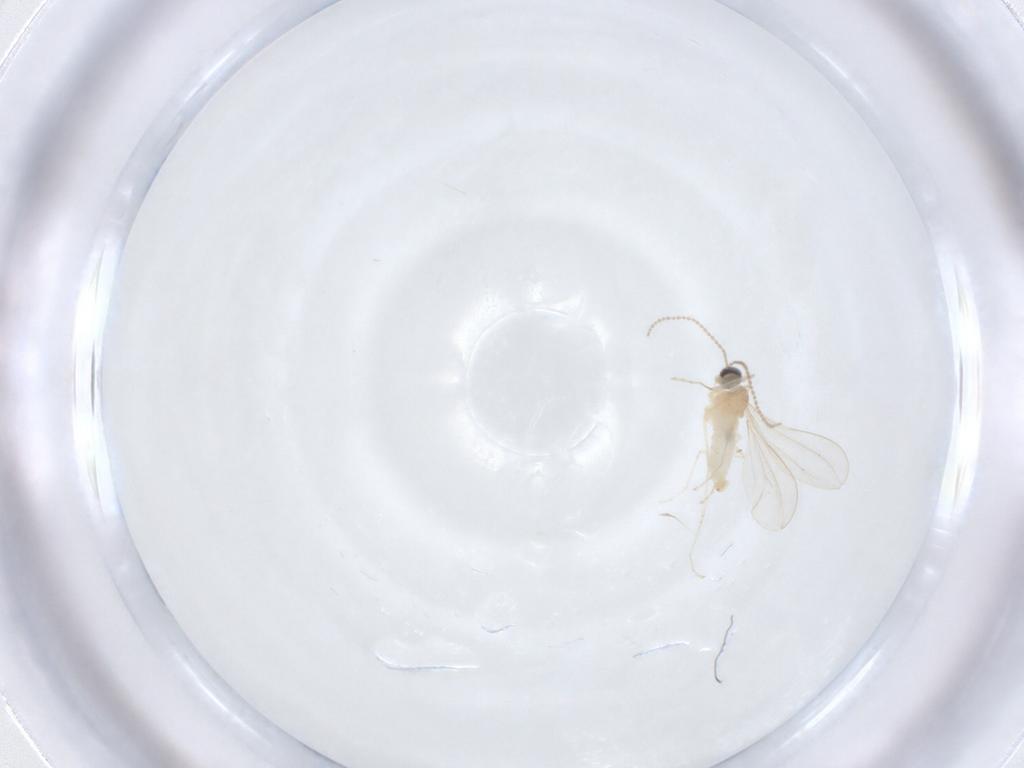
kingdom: Animalia
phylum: Arthropoda
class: Insecta
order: Diptera
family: Cecidomyiidae
